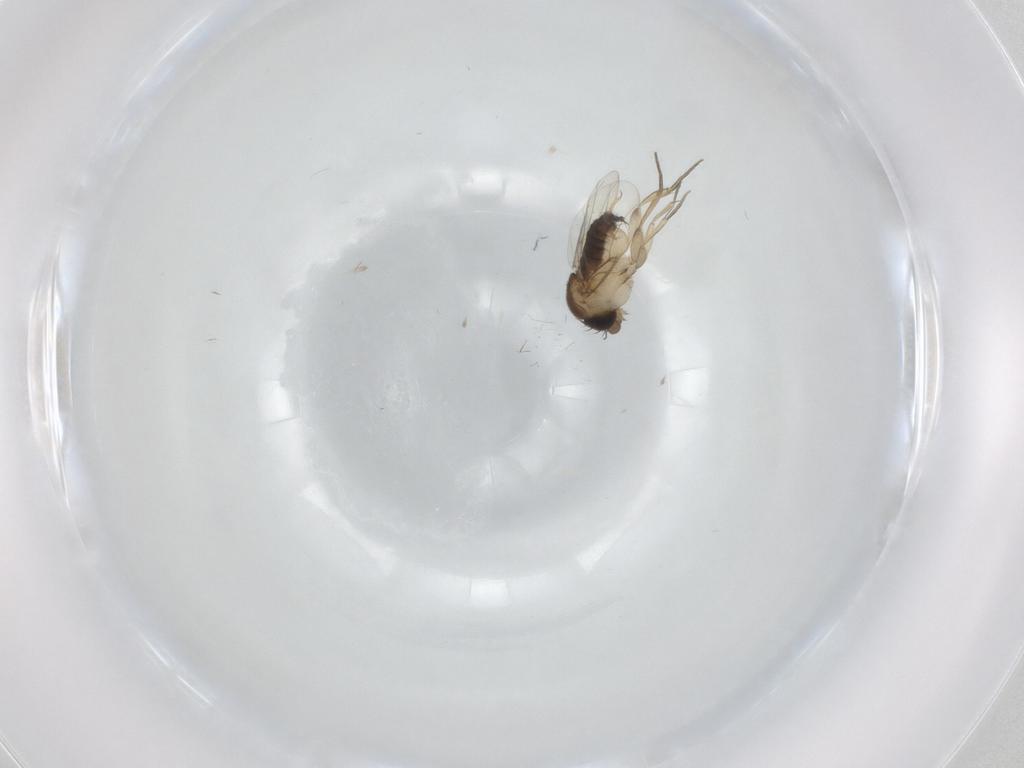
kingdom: Animalia
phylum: Arthropoda
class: Insecta
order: Diptera
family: Phoridae
